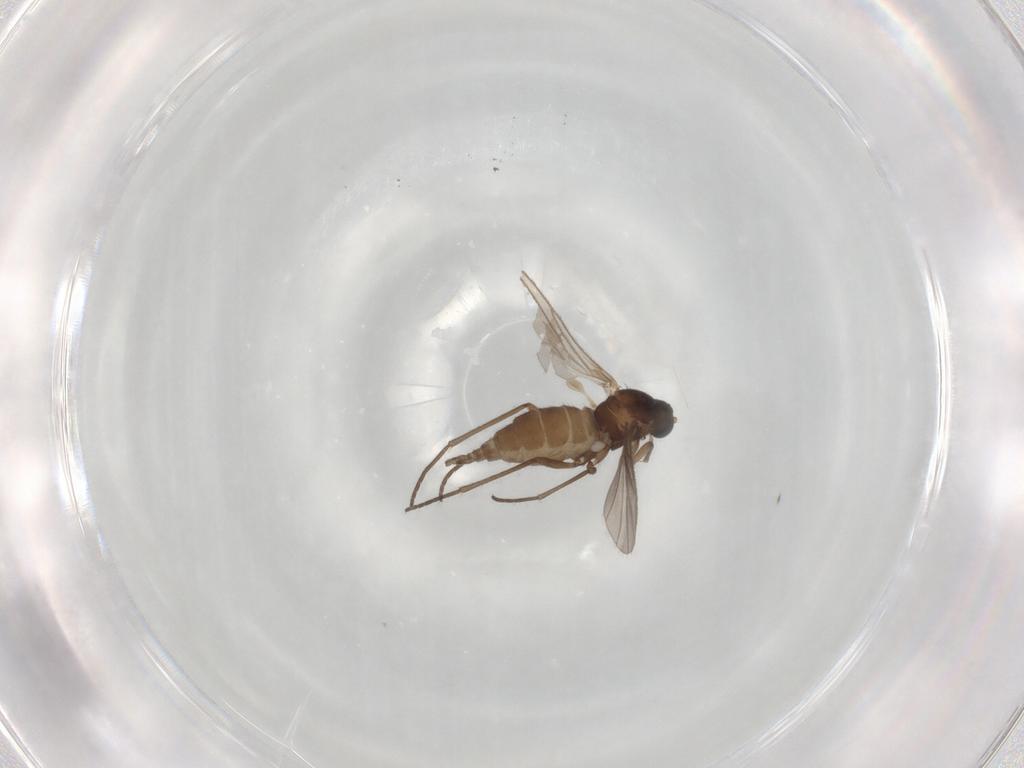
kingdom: Animalia
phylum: Arthropoda
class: Insecta
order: Diptera
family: Sciaridae
